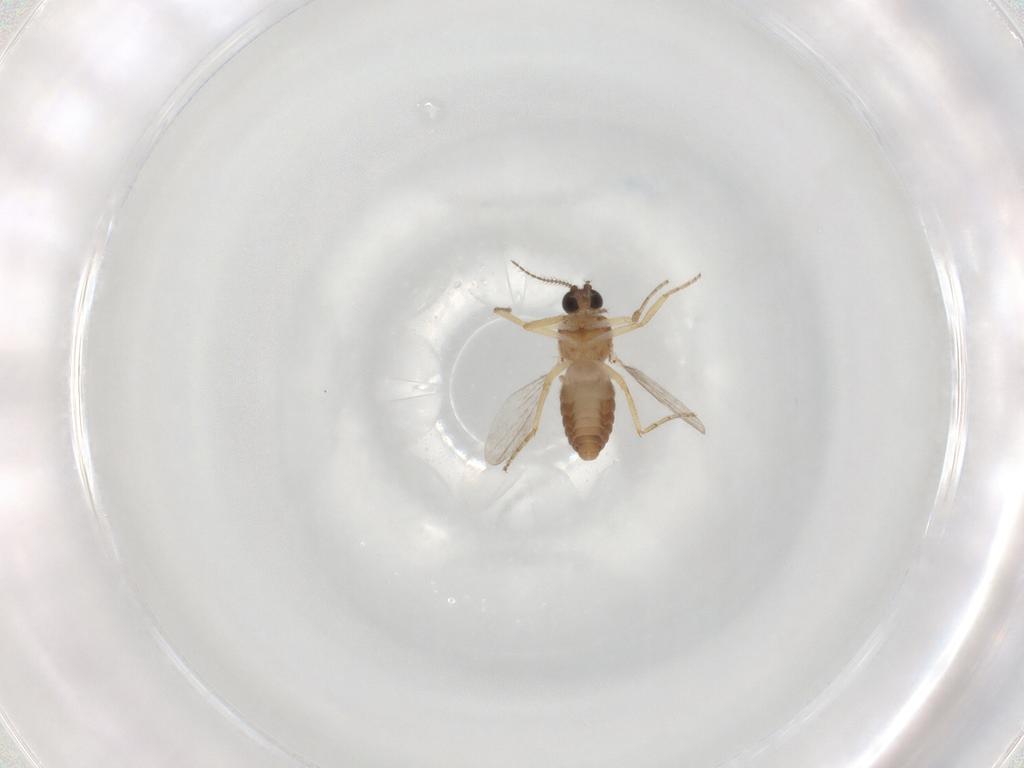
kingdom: Animalia
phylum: Arthropoda
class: Insecta
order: Diptera
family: Ceratopogonidae
